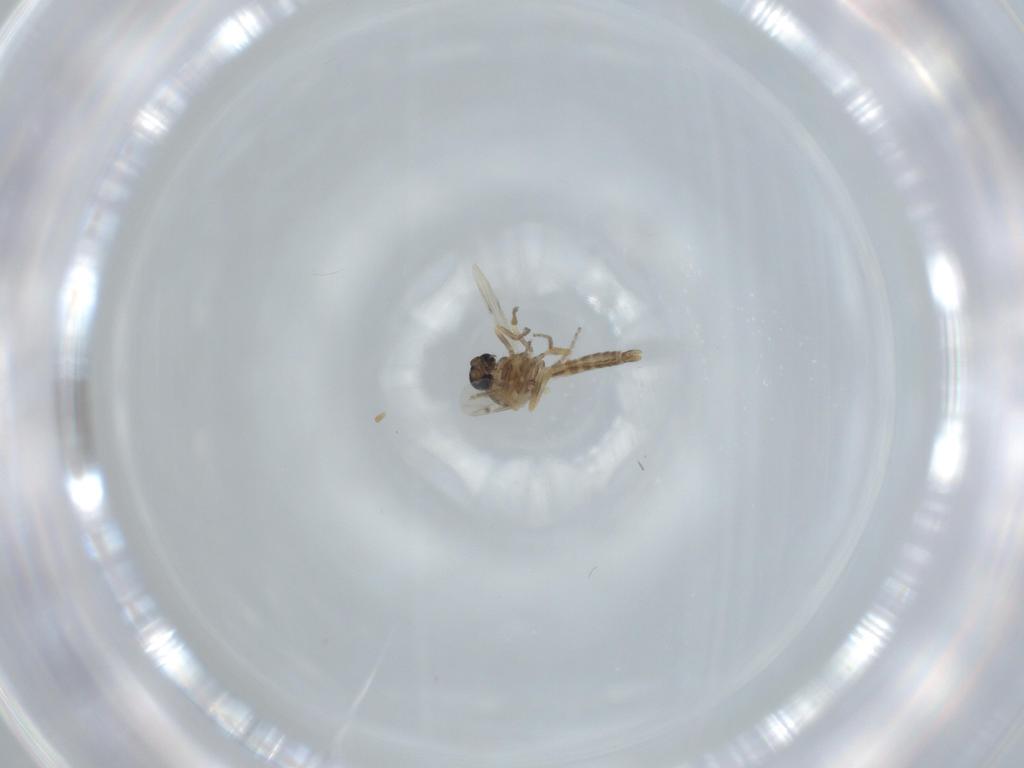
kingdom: Animalia
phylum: Arthropoda
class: Insecta
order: Diptera
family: Ceratopogonidae
